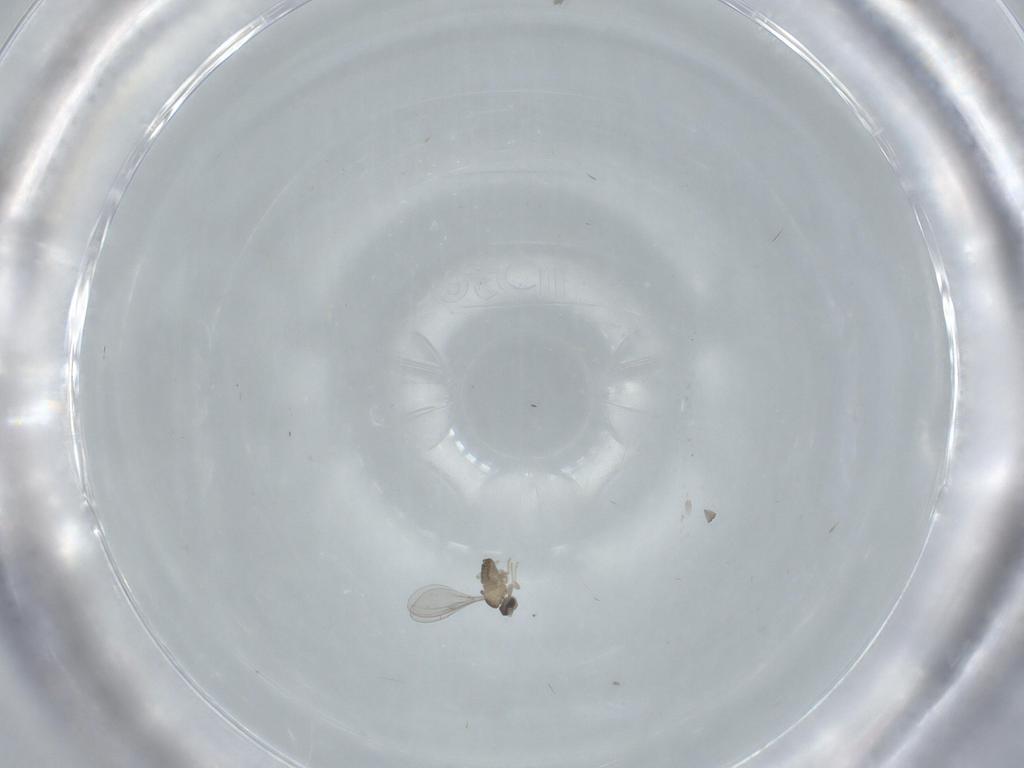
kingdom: Animalia
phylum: Arthropoda
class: Insecta
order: Diptera
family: Cecidomyiidae
